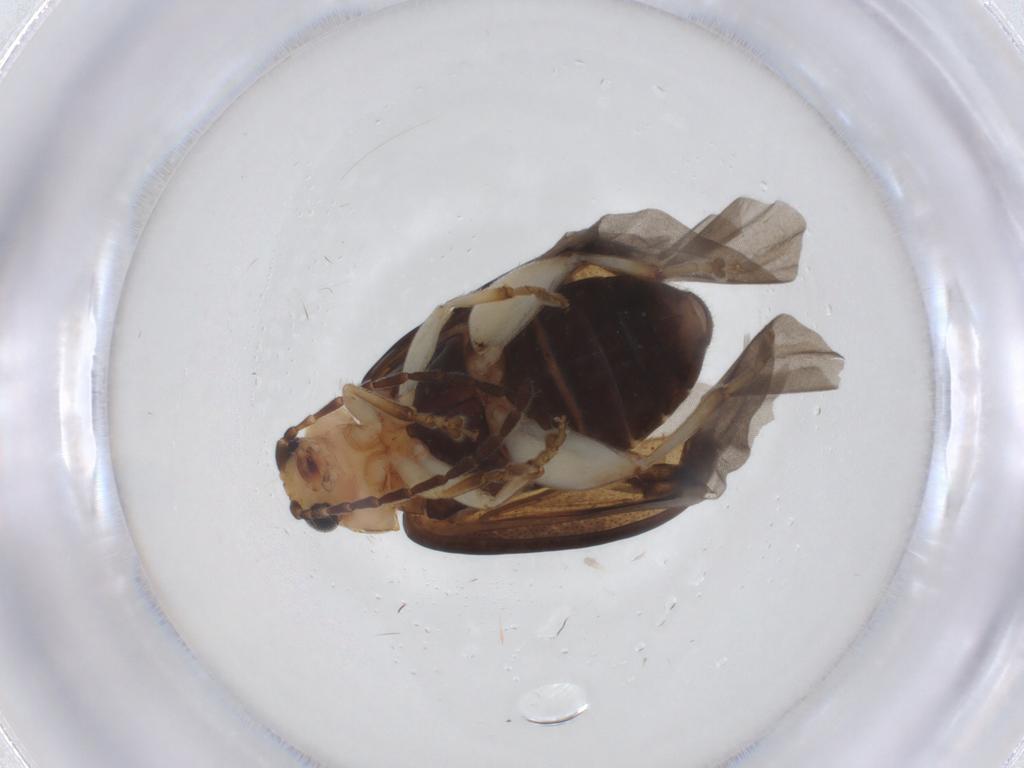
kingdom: Animalia
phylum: Arthropoda
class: Insecta
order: Coleoptera
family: Chrysomelidae
